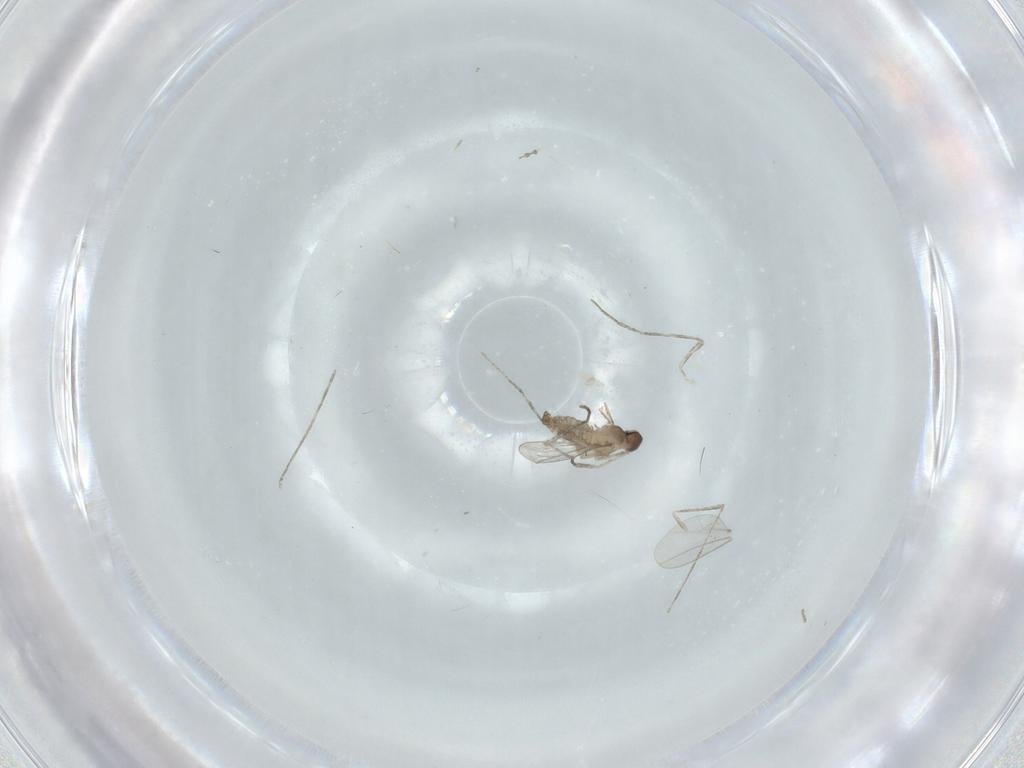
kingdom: Animalia
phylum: Arthropoda
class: Insecta
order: Diptera
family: Cecidomyiidae
